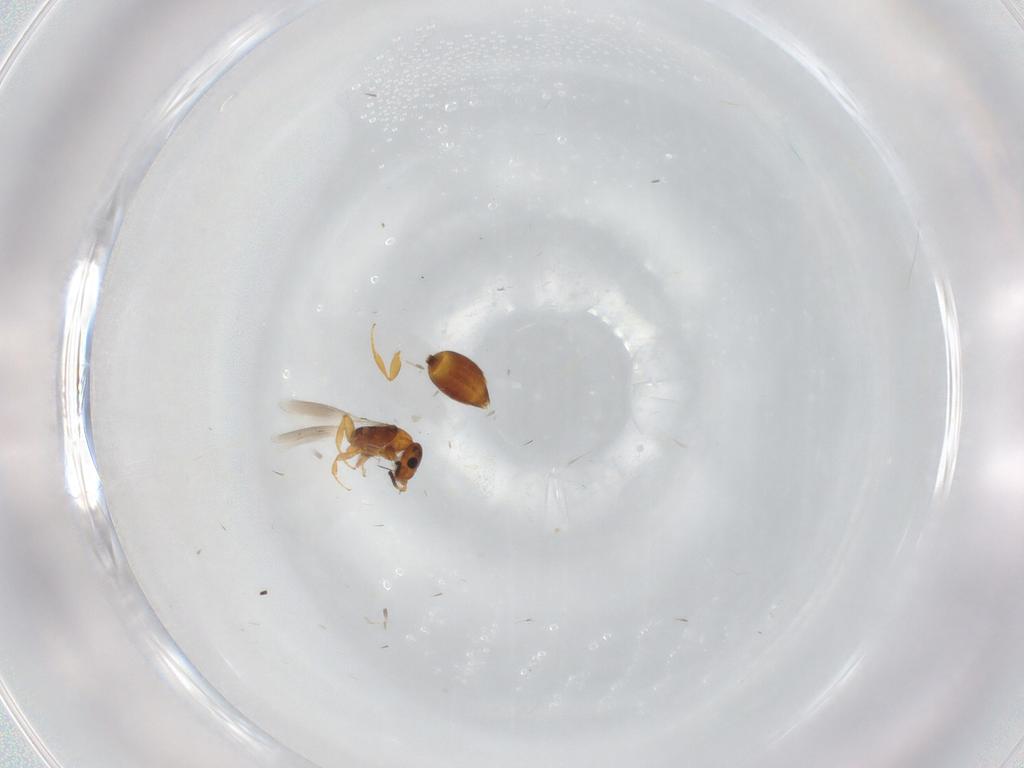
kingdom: Animalia
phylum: Arthropoda
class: Insecta
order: Hymenoptera
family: Bethylidae
